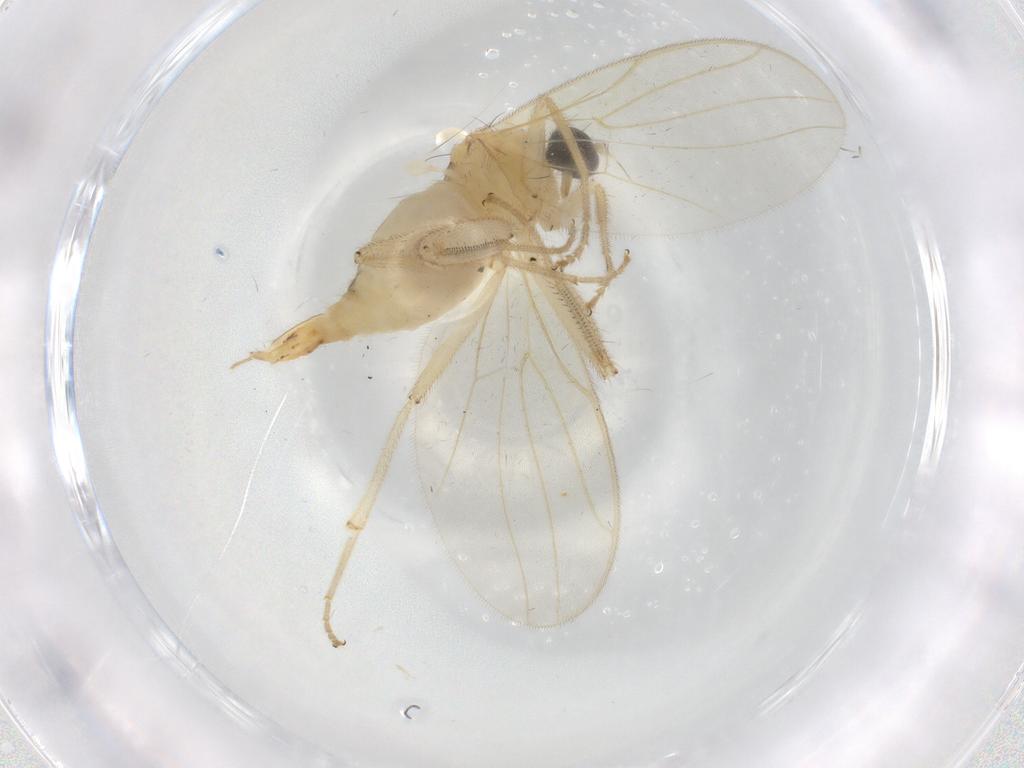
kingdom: Animalia
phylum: Arthropoda
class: Insecta
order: Diptera
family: Hybotidae
